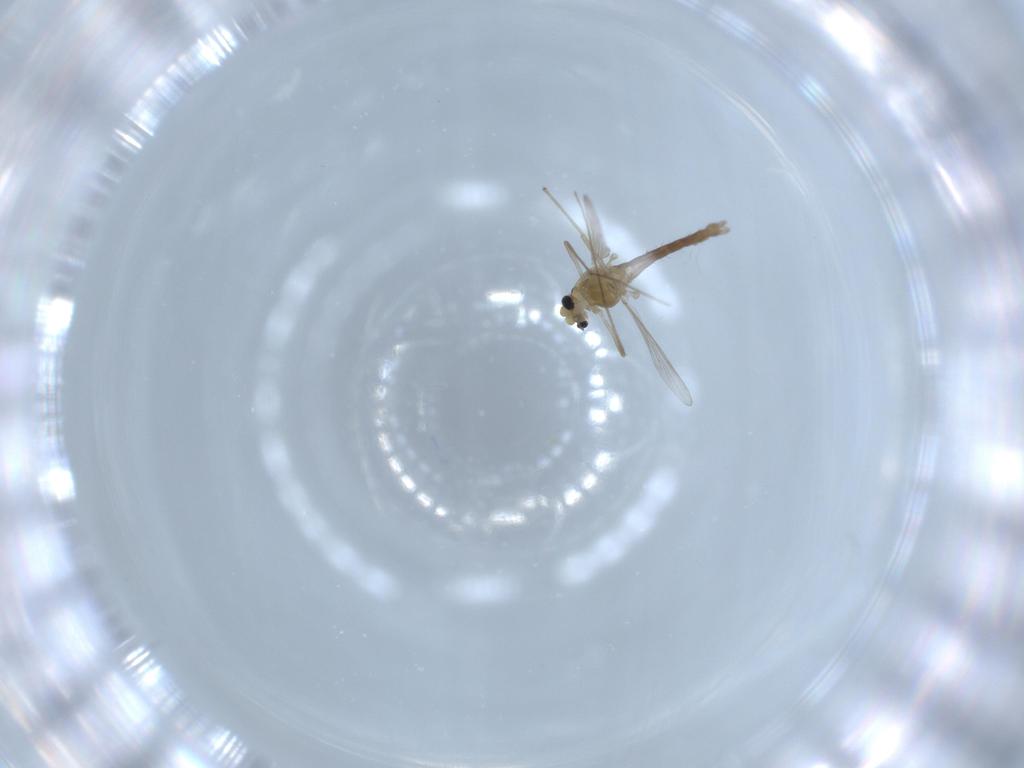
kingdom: Animalia
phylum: Arthropoda
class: Insecta
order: Diptera
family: Chironomidae
